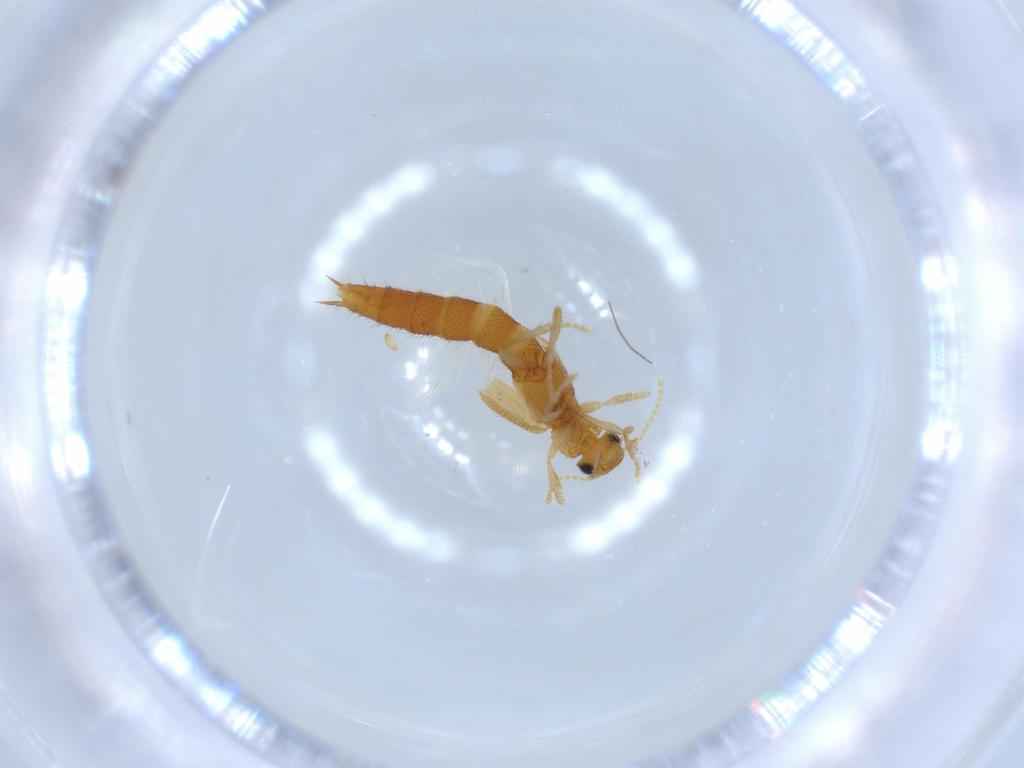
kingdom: Animalia
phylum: Arthropoda
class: Insecta
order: Coleoptera
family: Staphylinidae
